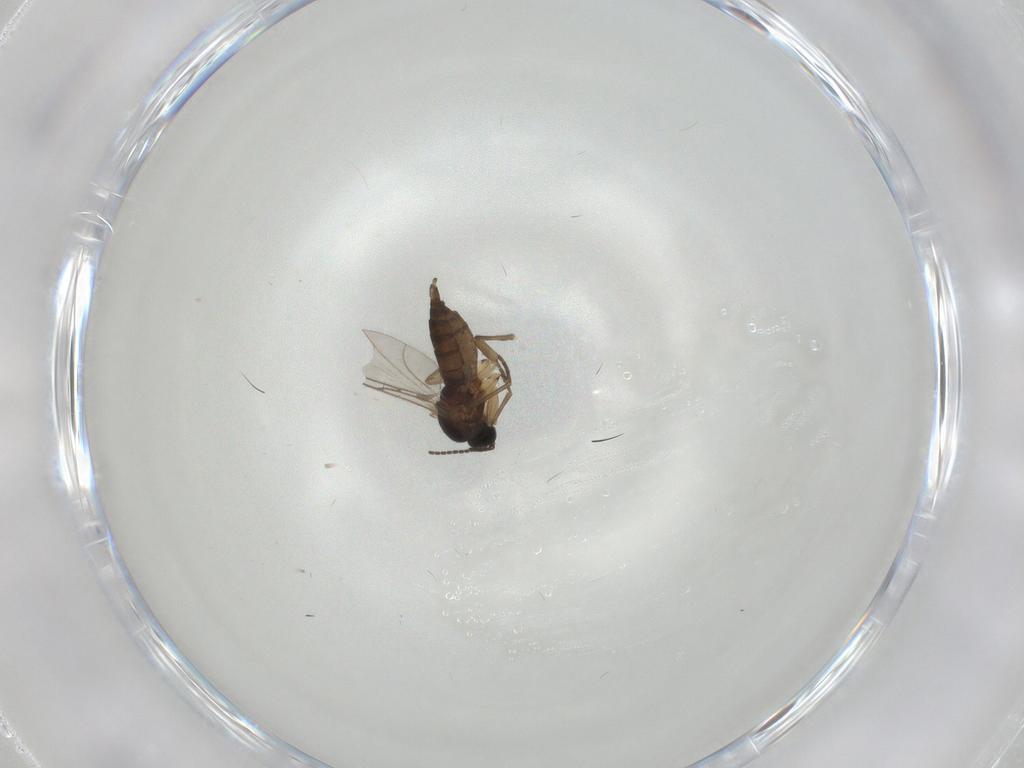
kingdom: Animalia
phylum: Arthropoda
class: Insecta
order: Diptera
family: Sciaridae
